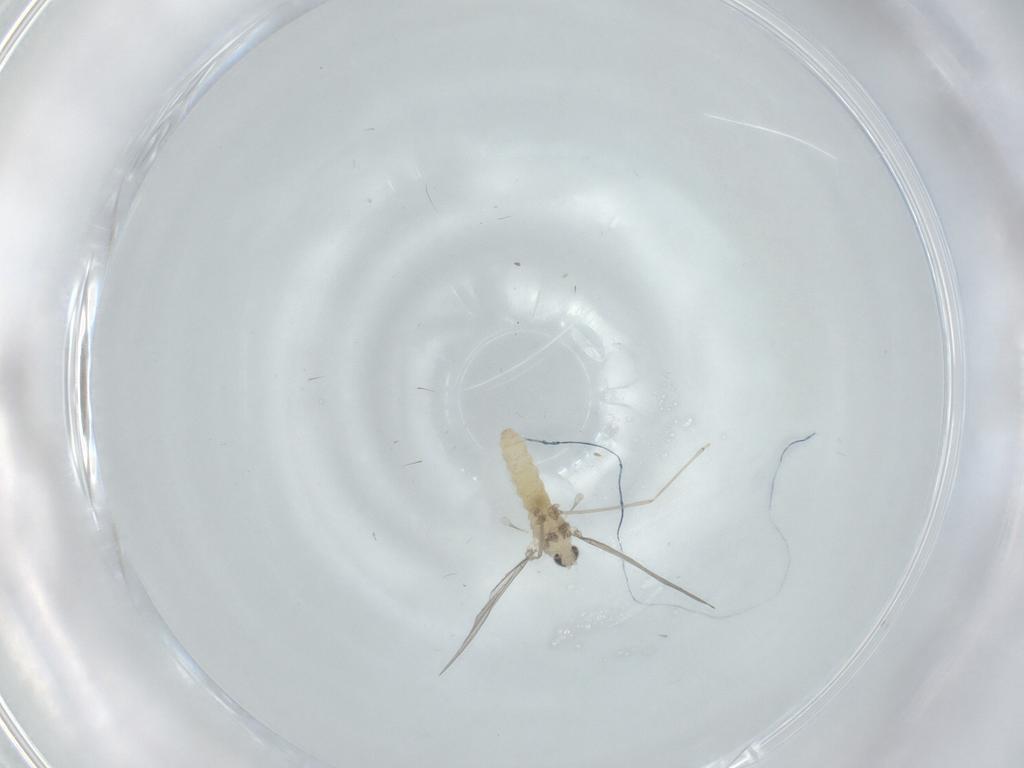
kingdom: Animalia
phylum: Arthropoda
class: Insecta
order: Diptera
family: Cecidomyiidae
